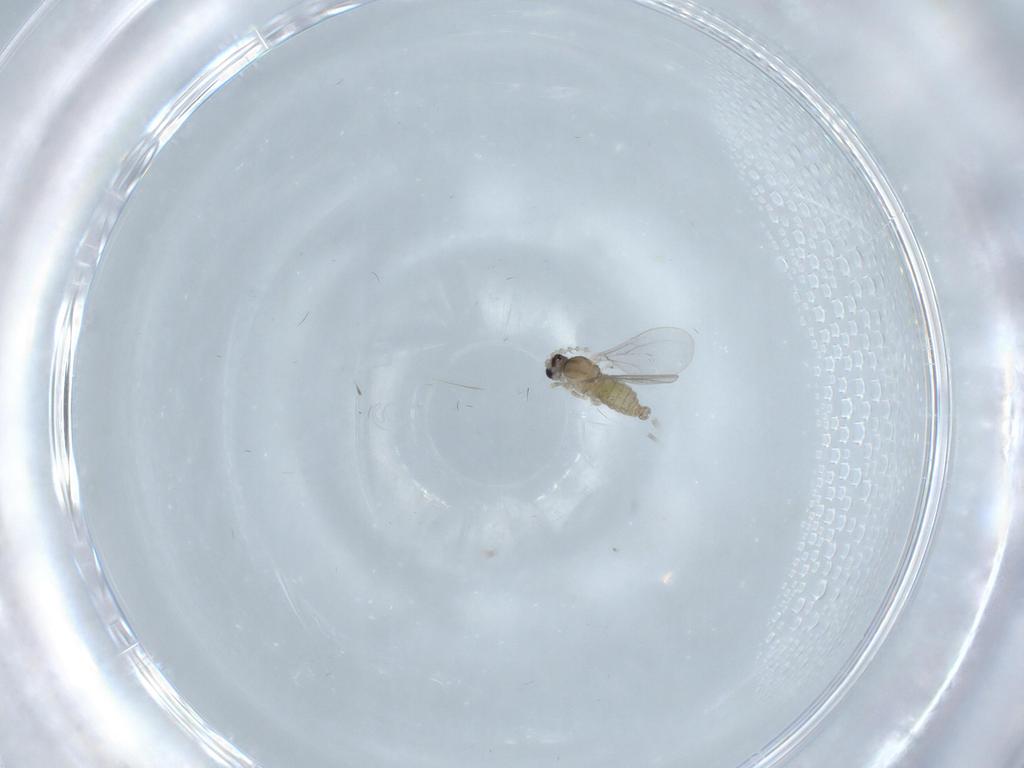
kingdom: Animalia
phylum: Arthropoda
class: Insecta
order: Diptera
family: Cecidomyiidae
